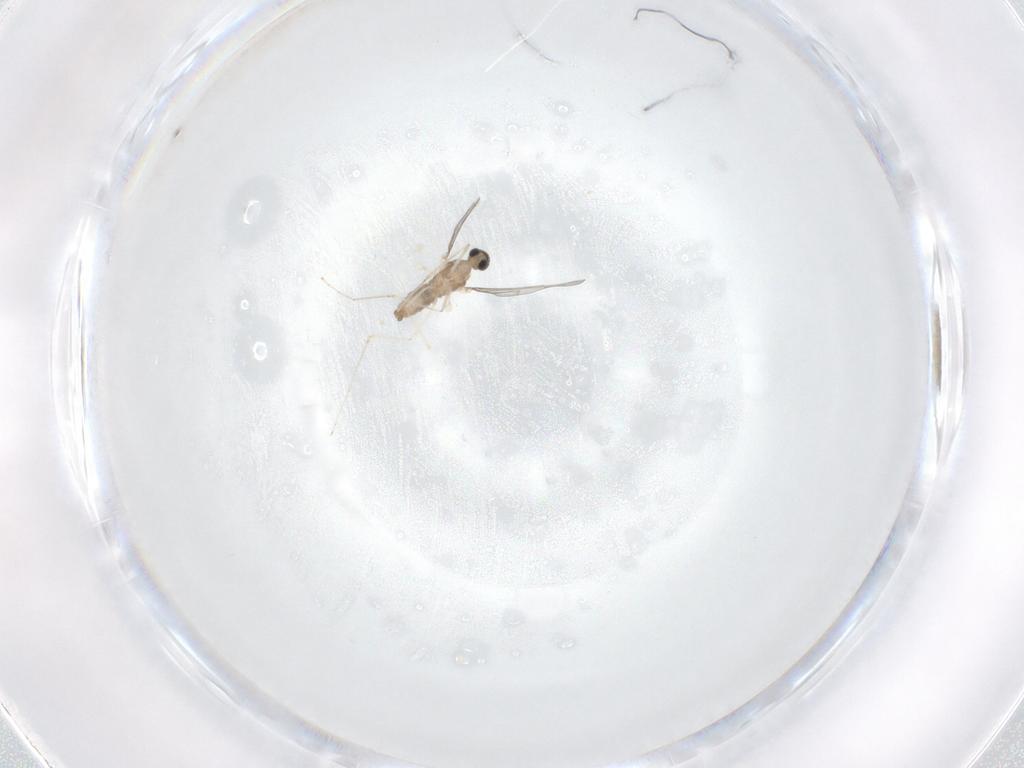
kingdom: Animalia
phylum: Arthropoda
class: Insecta
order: Diptera
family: Cecidomyiidae
